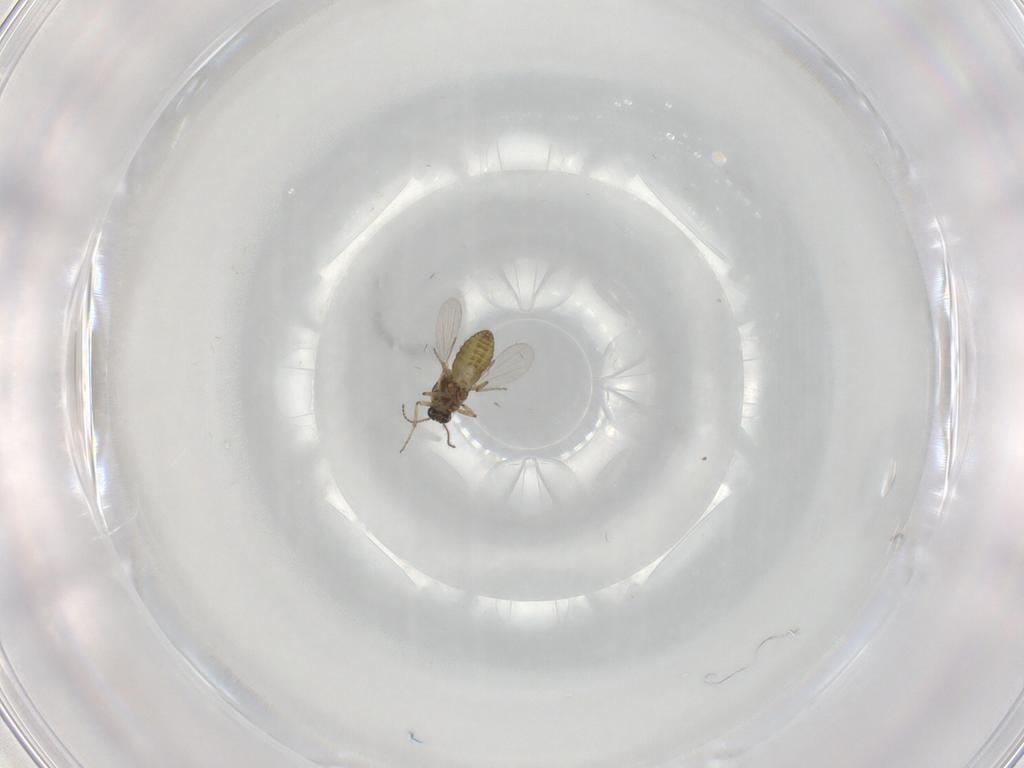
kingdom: Animalia
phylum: Arthropoda
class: Insecta
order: Diptera
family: Ceratopogonidae
